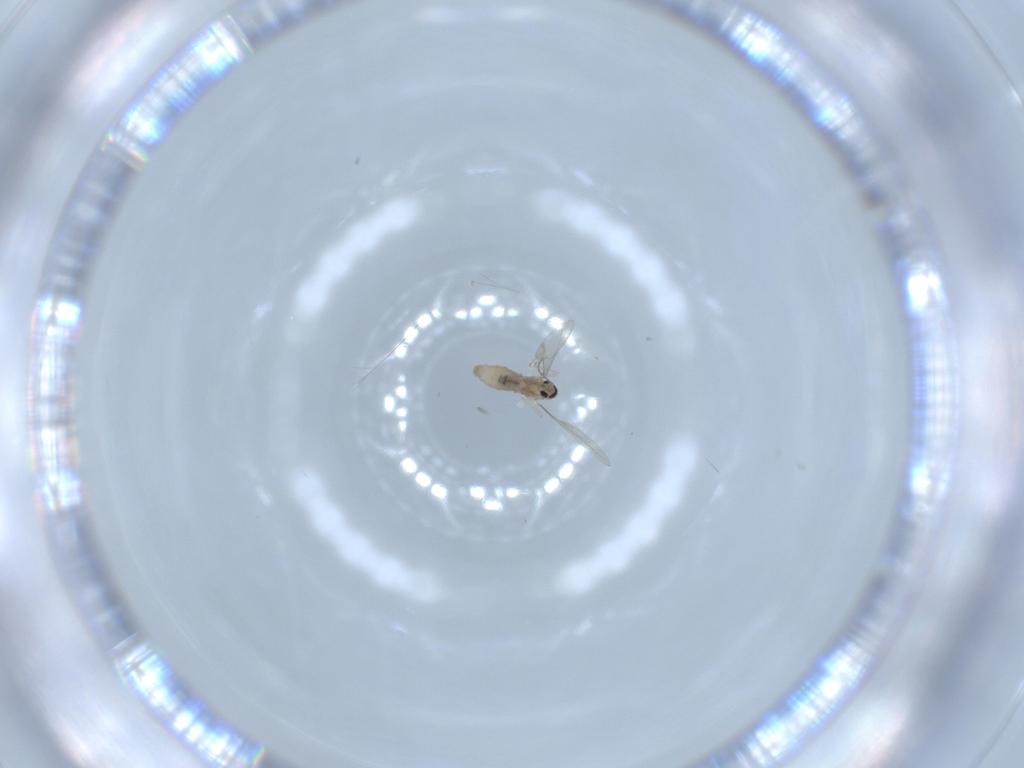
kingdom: Animalia
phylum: Arthropoda
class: Insecta
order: Diptera
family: Cecidomyiidae
